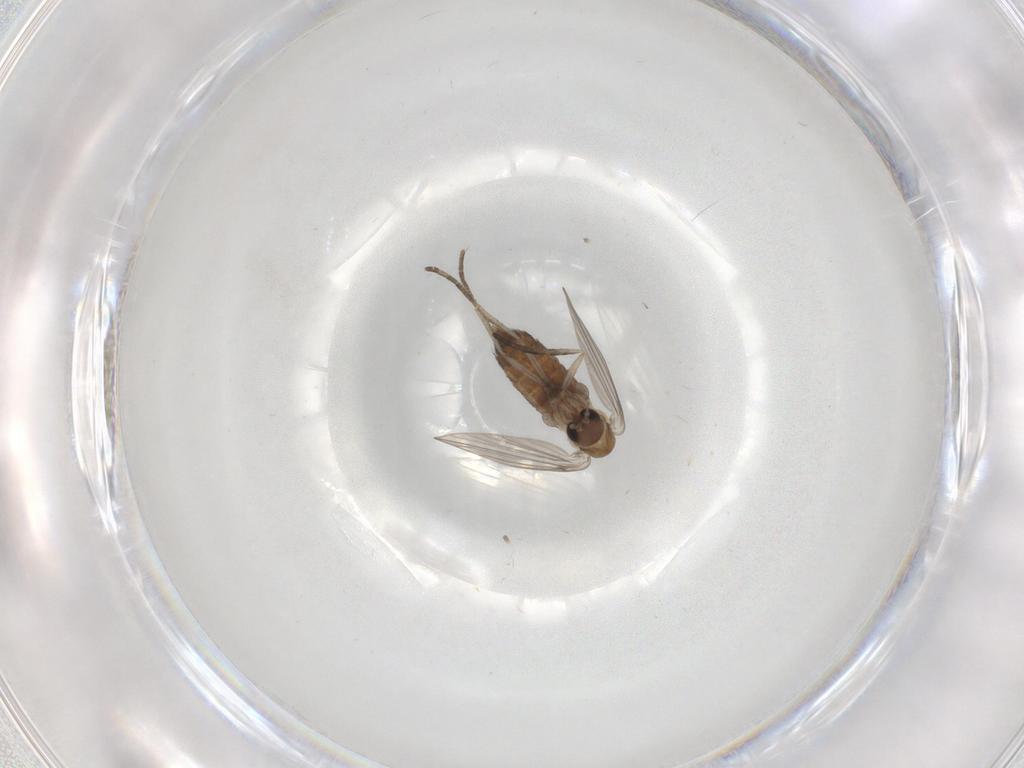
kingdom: Animalia
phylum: Arthropoda
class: Insecta
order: Diptera
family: Psychodidae
